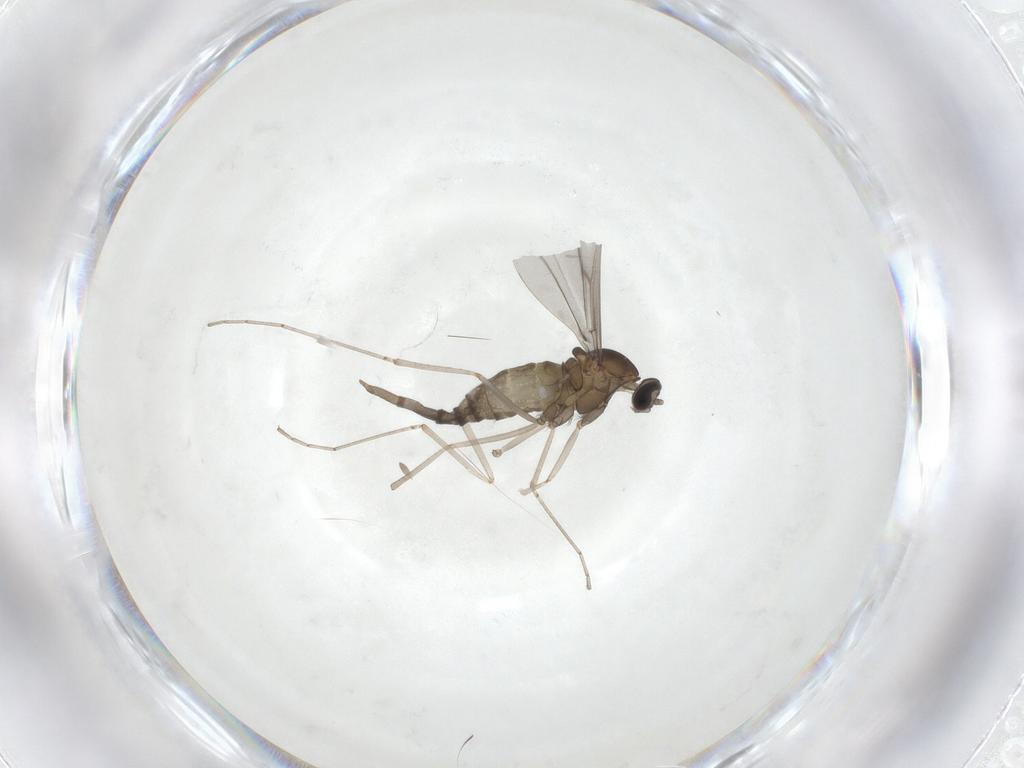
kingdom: Animalia
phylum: Arthropoda
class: Insecta
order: Diptera
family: Cecidomyiidae
